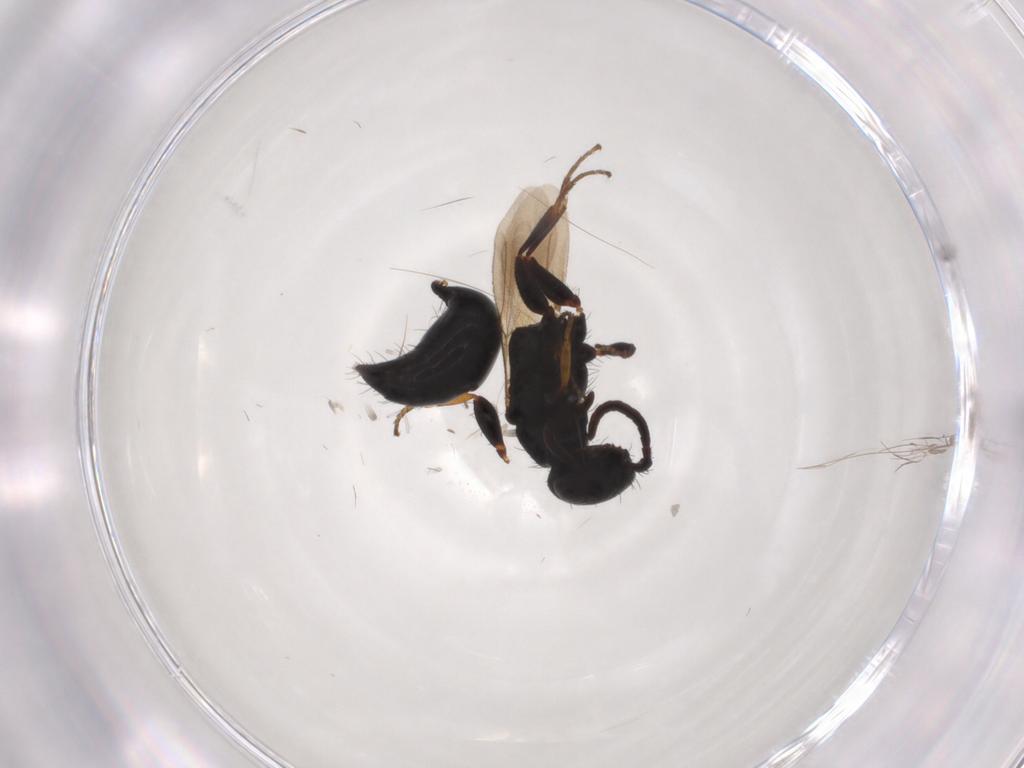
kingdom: Animalia
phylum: Arthropoda
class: Insecta
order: Hymenoptera
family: Bethylidae
